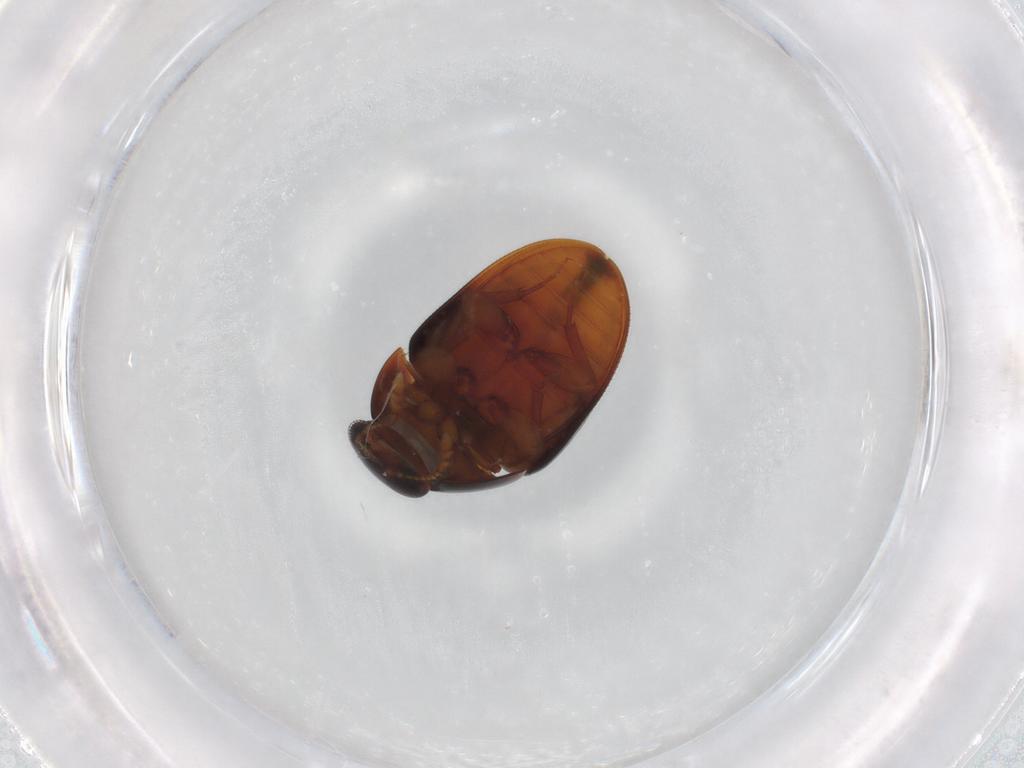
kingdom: Animalia
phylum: Arthropoda
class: Insecta
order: Coleoptera
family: Phalacridae
